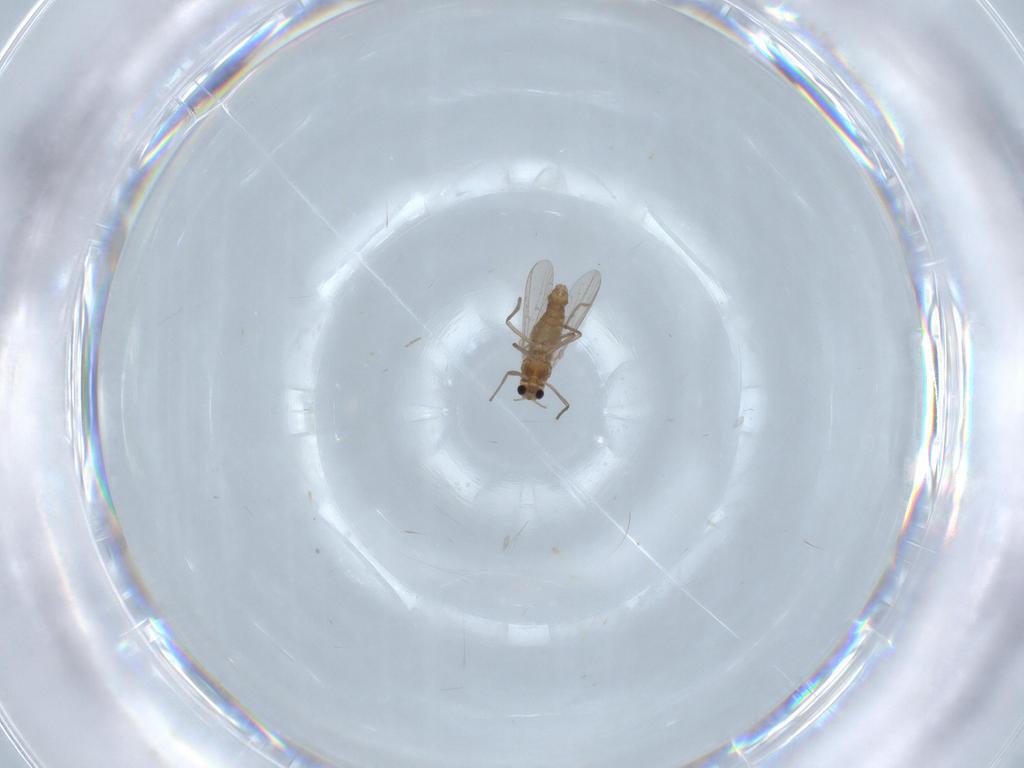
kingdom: Animalia
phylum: Arthropoda
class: Insecta
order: Diptera
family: Chironomidae
